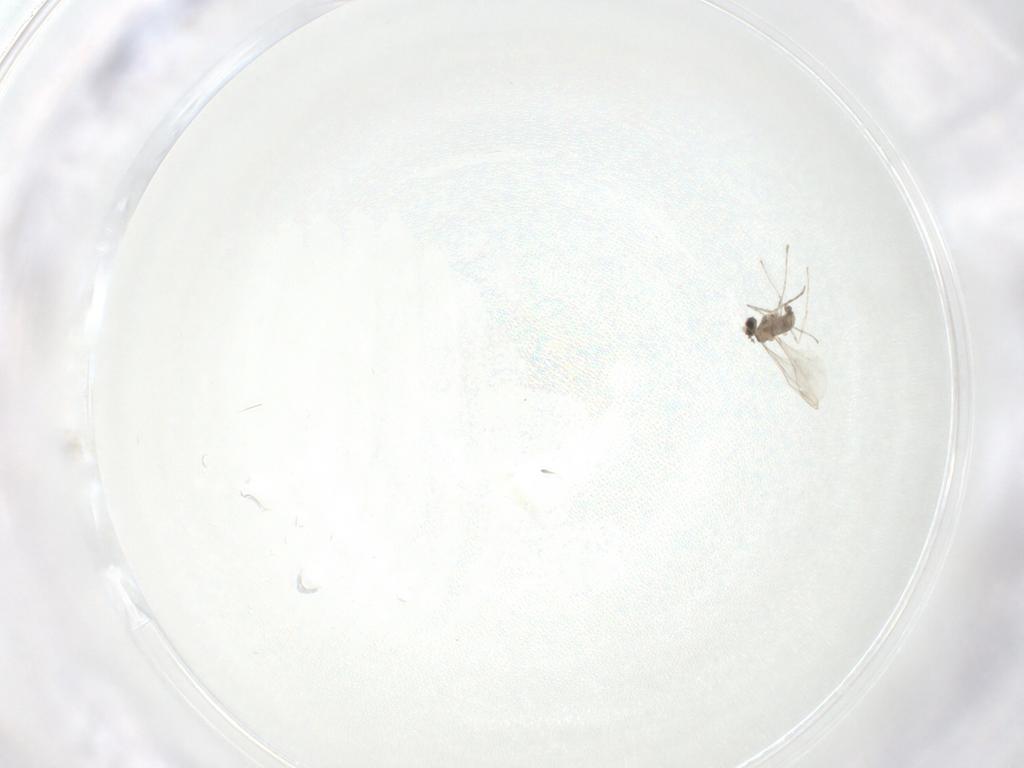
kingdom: Animalia
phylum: Arthropoda
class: Insecta
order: Diptera
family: Cecidomyiidae
